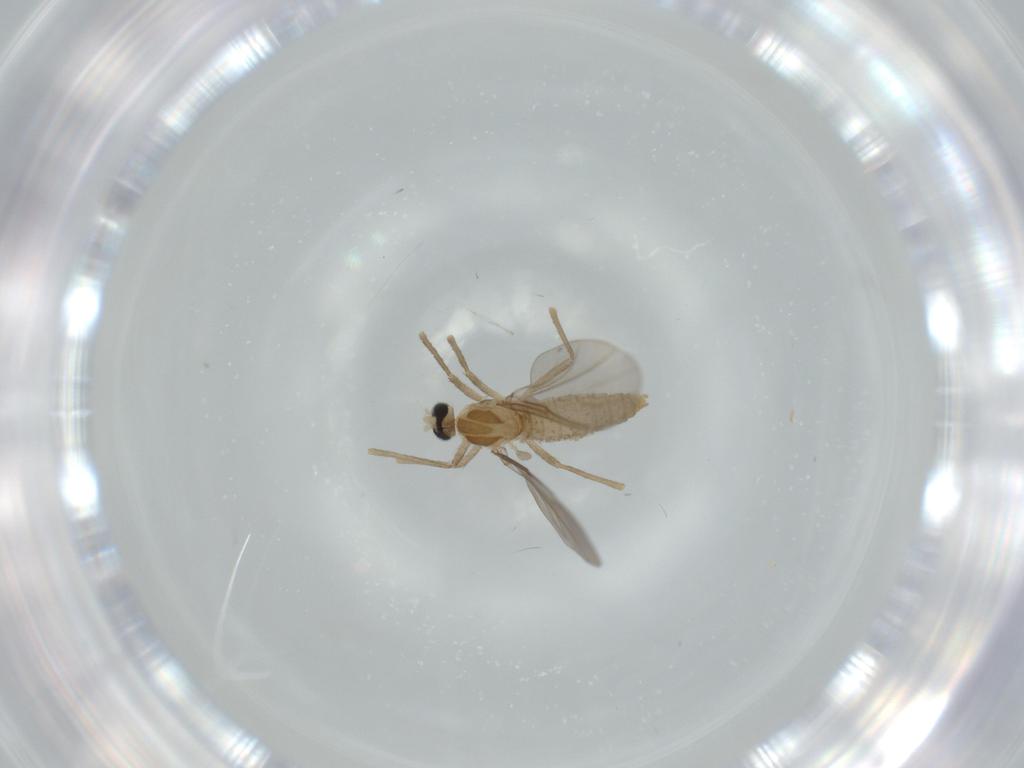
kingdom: Animalia
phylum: Arthropoda
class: Insecta
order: Diptera
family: Cecidomyiidae
